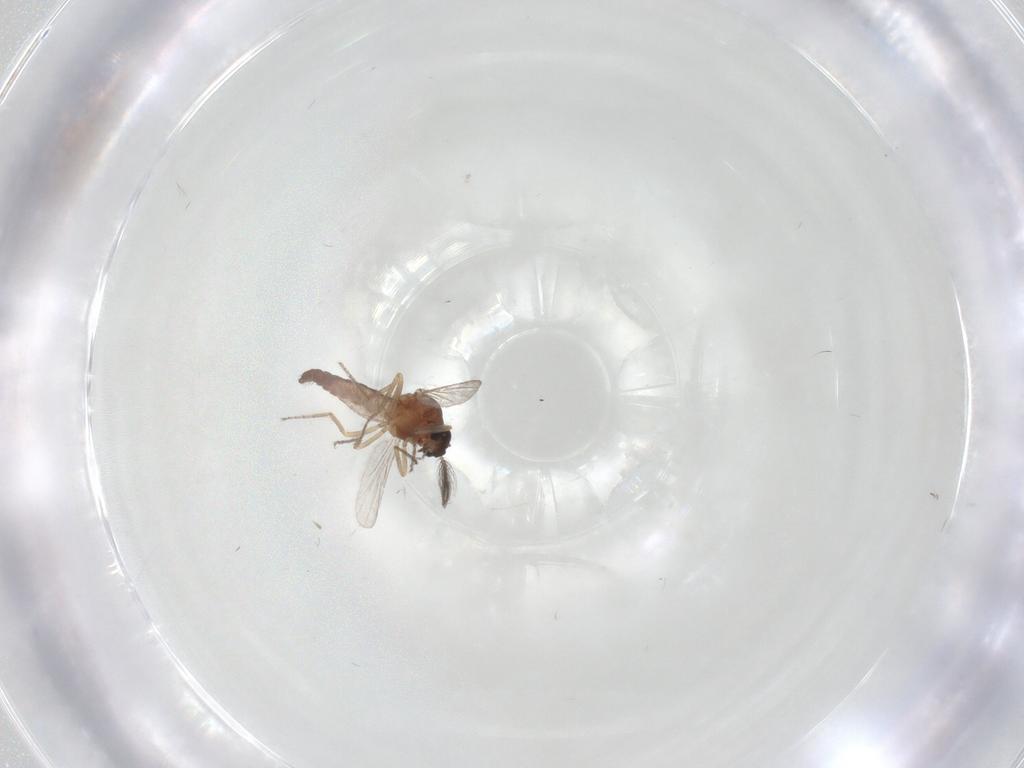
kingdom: Animalia
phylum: Arthropoda
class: Insecta
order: Diptera
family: Ceratopogonidae
